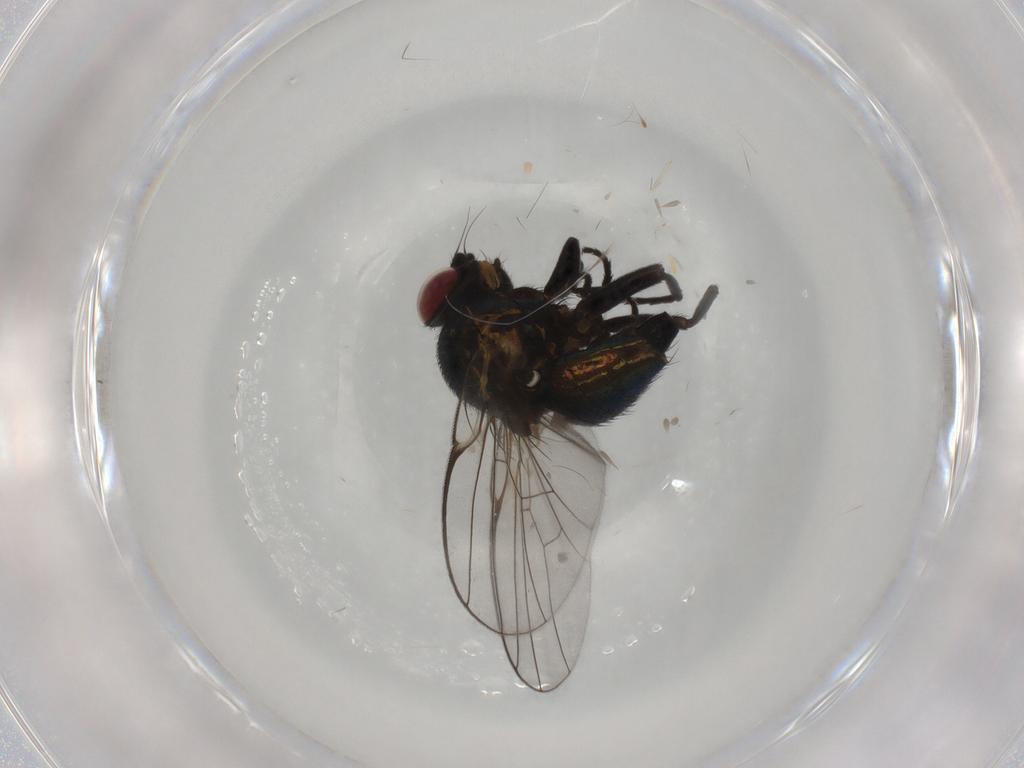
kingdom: Animalia
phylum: Arthropoda
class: Insecta
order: Diptera
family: Agromyzidae
